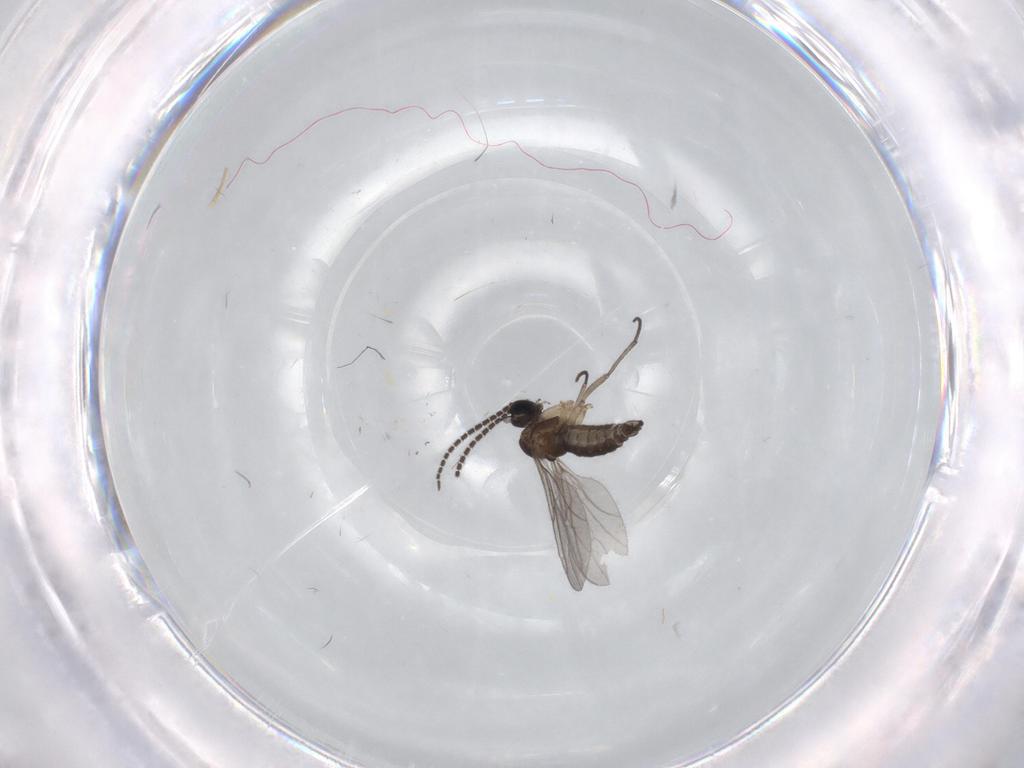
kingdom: Animalia
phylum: Arthropoda
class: Insecta
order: Diptera
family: Sciaridae
